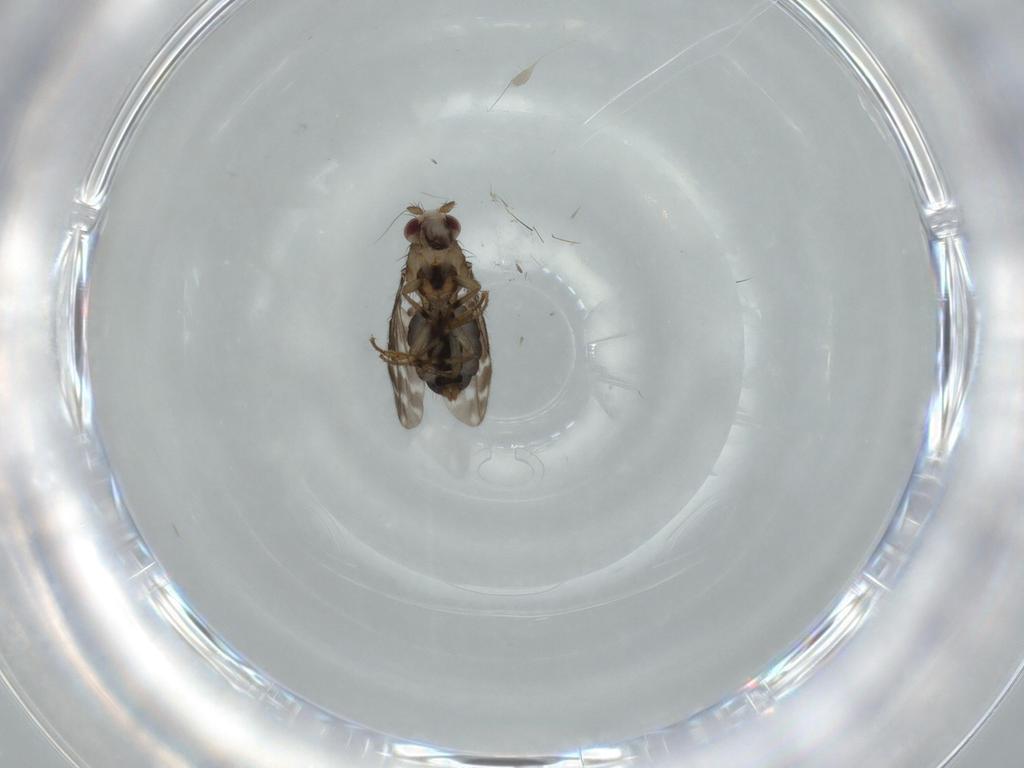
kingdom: Animalia
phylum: Arthropoda
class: Insecta
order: Diptera
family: Sphaeroceridae
